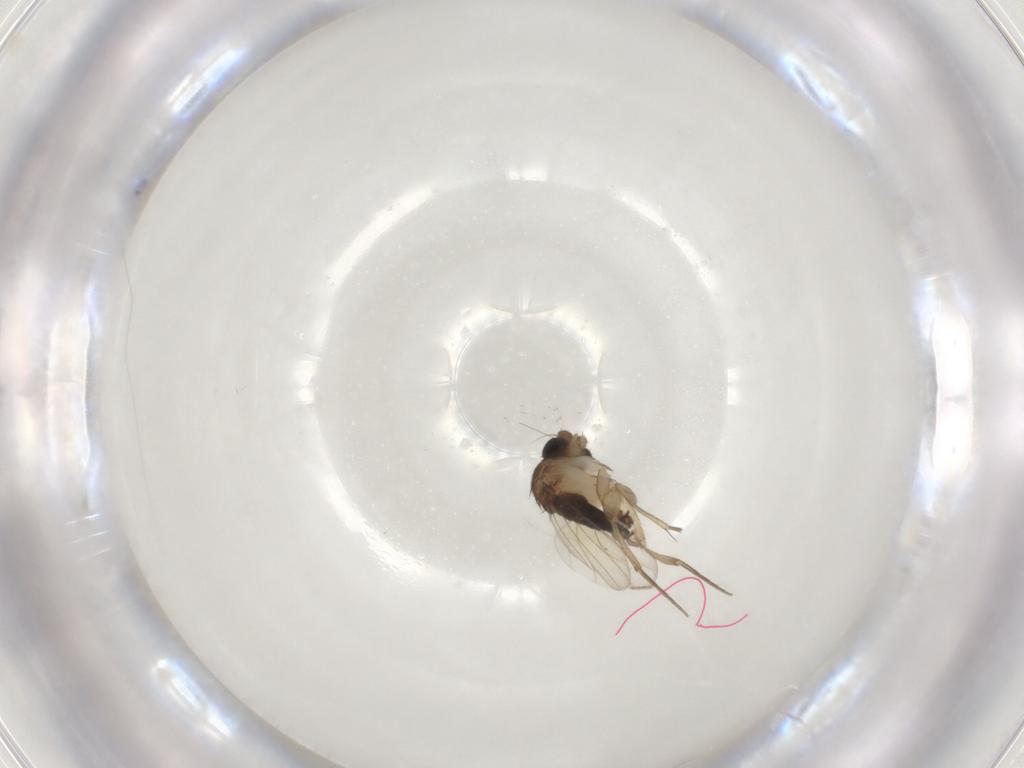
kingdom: Animalia
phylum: Arthropoda
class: Insecta
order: Diptera
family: Phoridae
